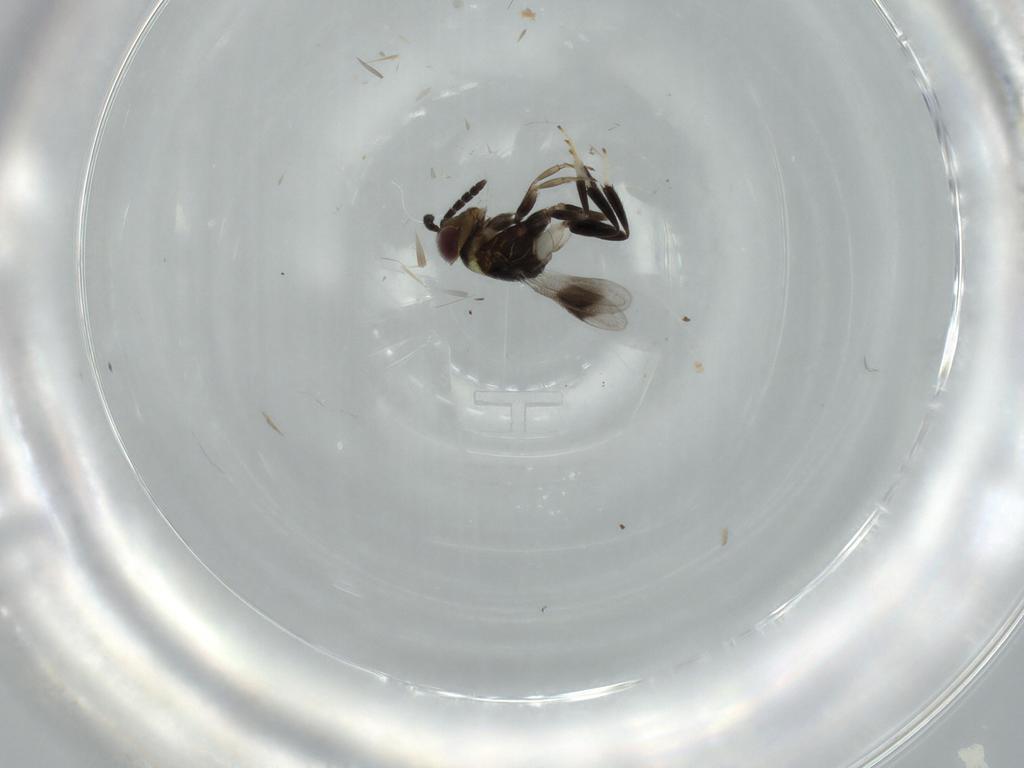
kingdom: Animalia
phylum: Arthropoda
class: Insecta
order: Hymenoptera
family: Aphelinidae
